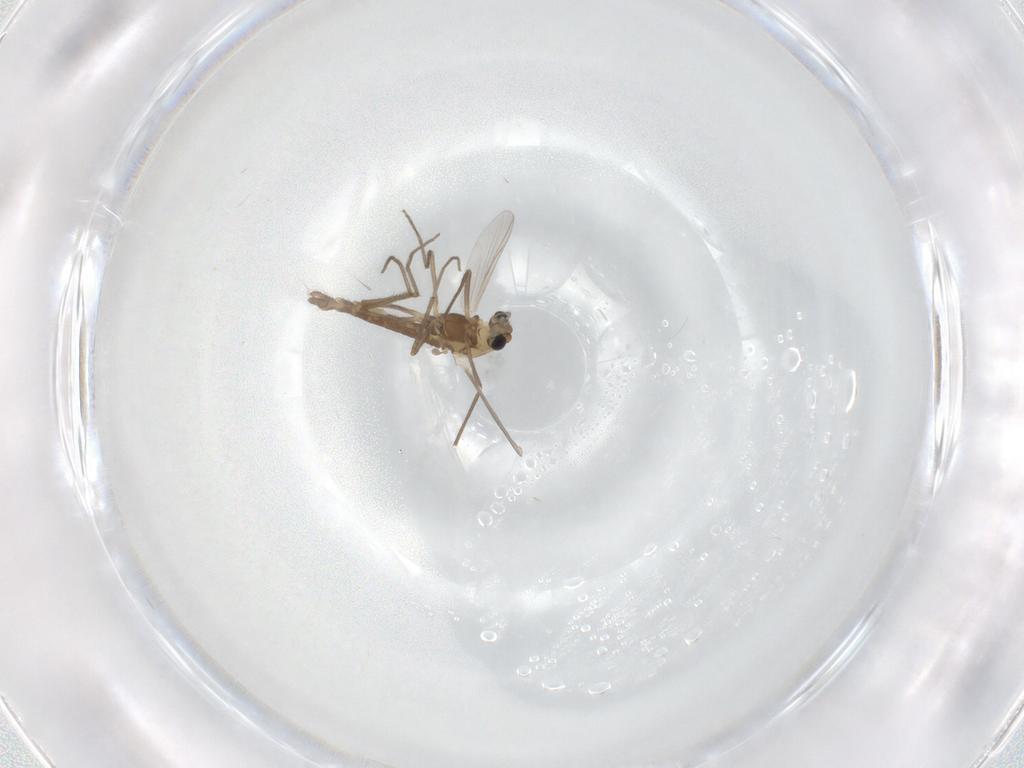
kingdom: Animalia
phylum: Arthropoda
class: Insecta
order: Diptera
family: Chironomidae
